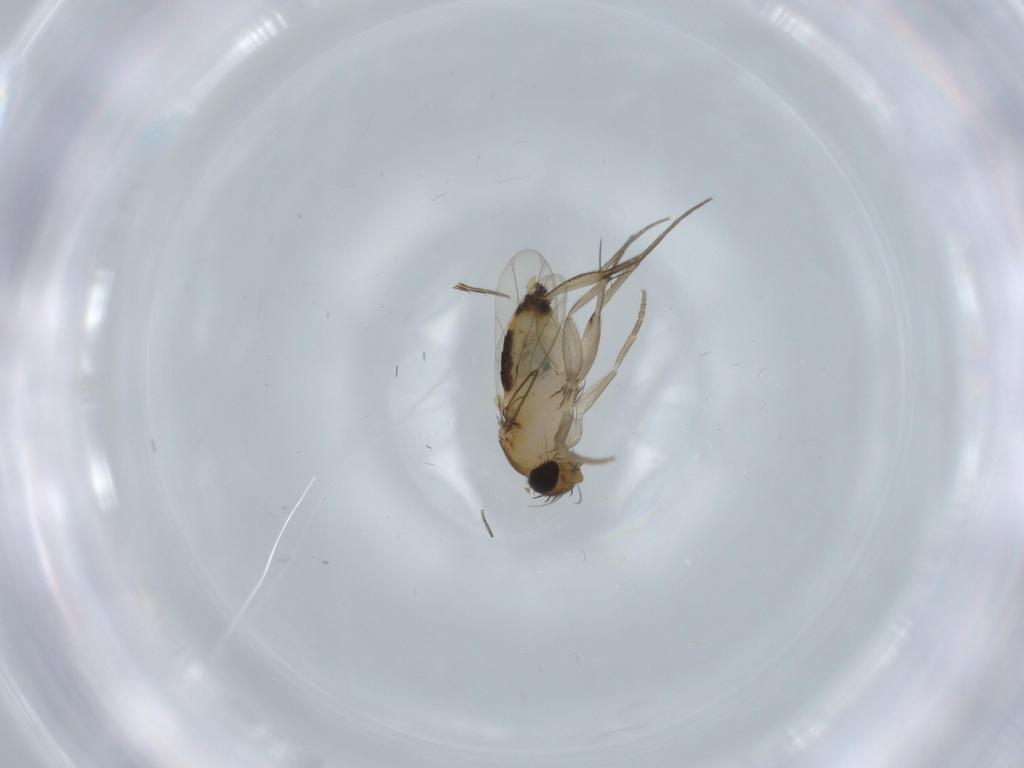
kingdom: Animalia
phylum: Arthropoda
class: Insecta
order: Diptera
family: Phoridae
